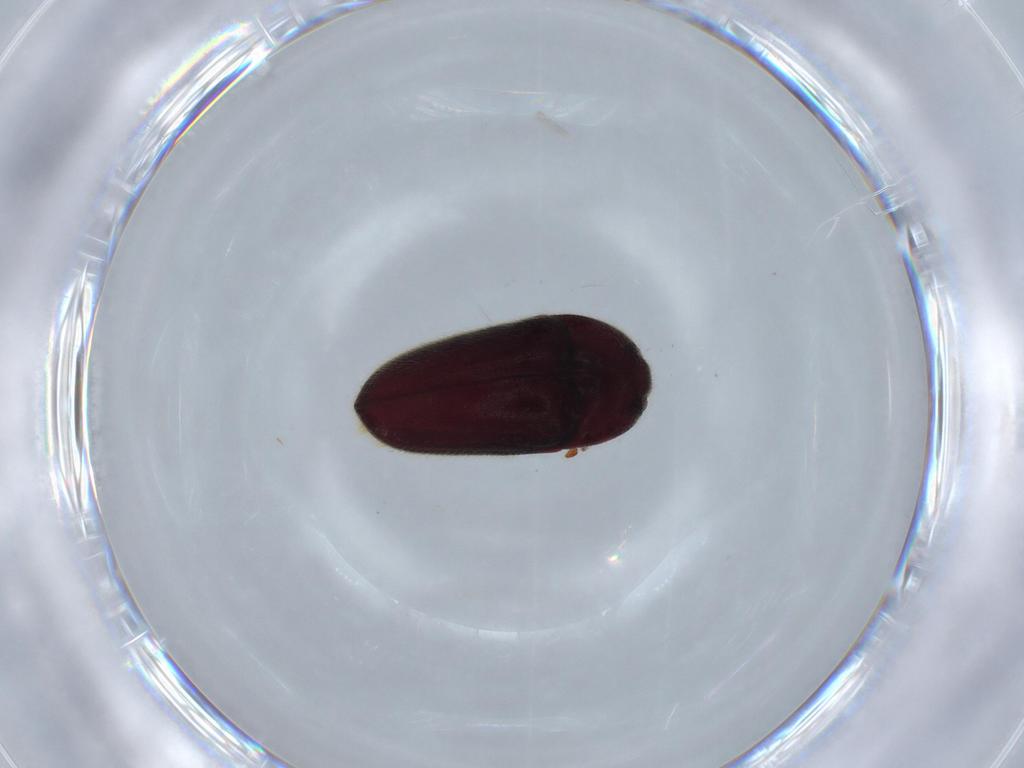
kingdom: Animalia
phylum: Arthropoda
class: Insecta
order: Coleoptera
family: Throscidae
